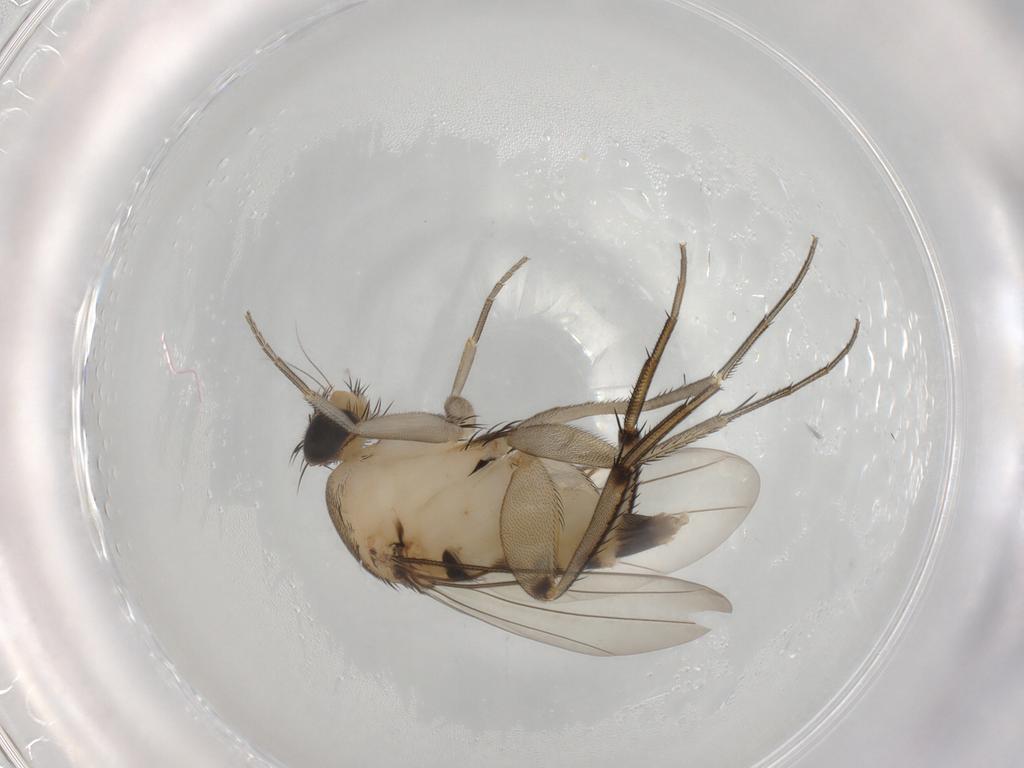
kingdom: Animalia
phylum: Arthropoda
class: Insecta
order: Diptera
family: Phoridae
